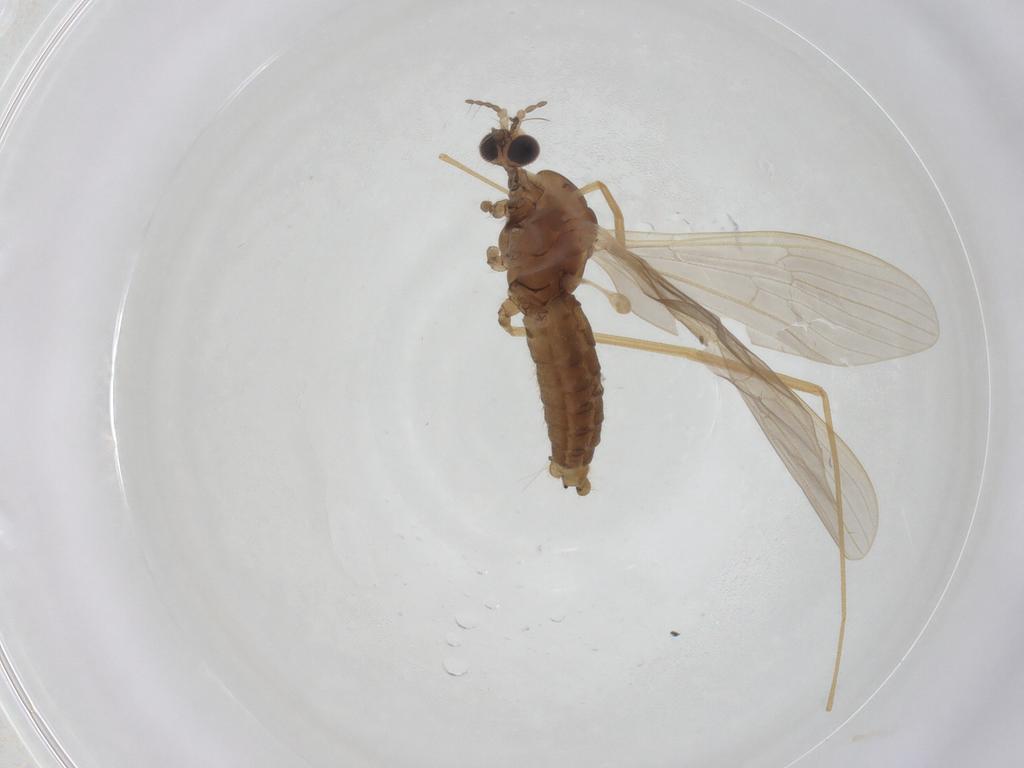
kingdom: Animalia
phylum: Arthropoda
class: Insecta
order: Diptera
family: Limoniidae
